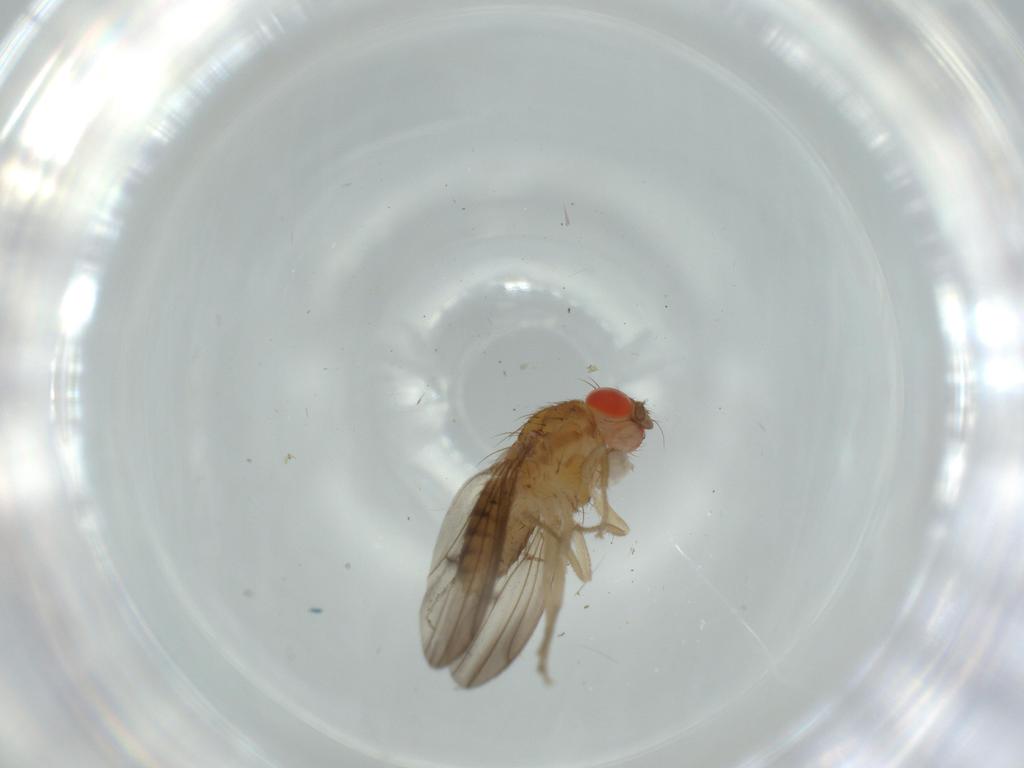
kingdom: Animalia
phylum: Arthropoda
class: Insecta
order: Diptera
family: Drosophilidae
